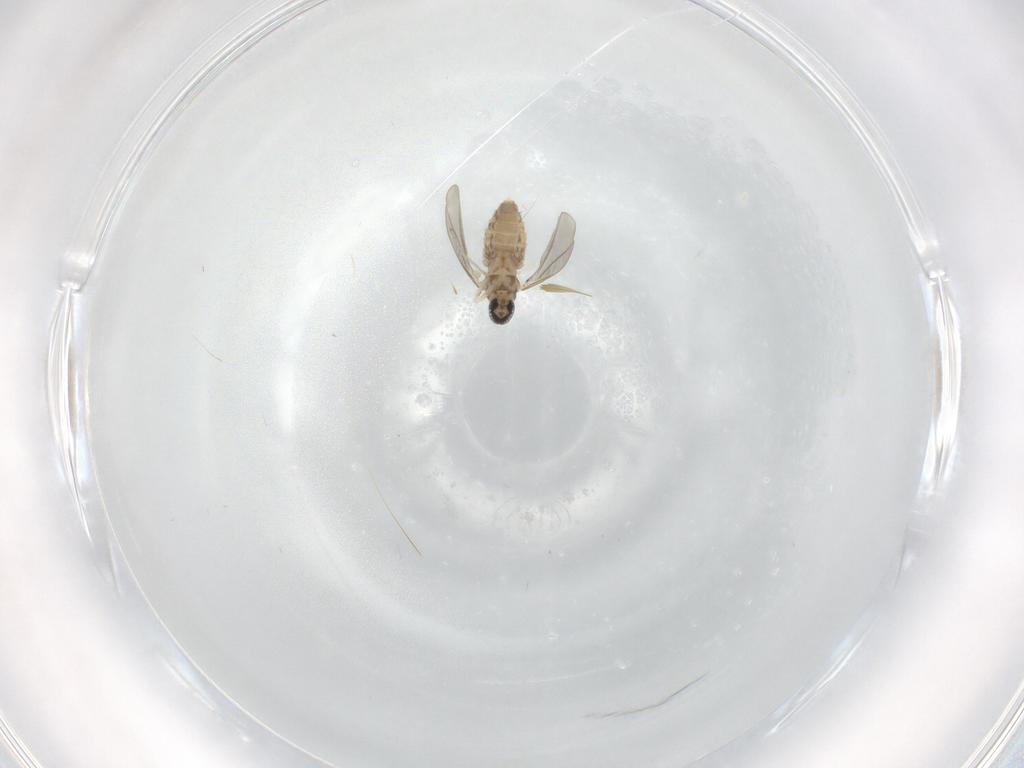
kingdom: Animalia
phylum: Arthropoda
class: Insecta
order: Diptera
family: Cecidomyiidae
